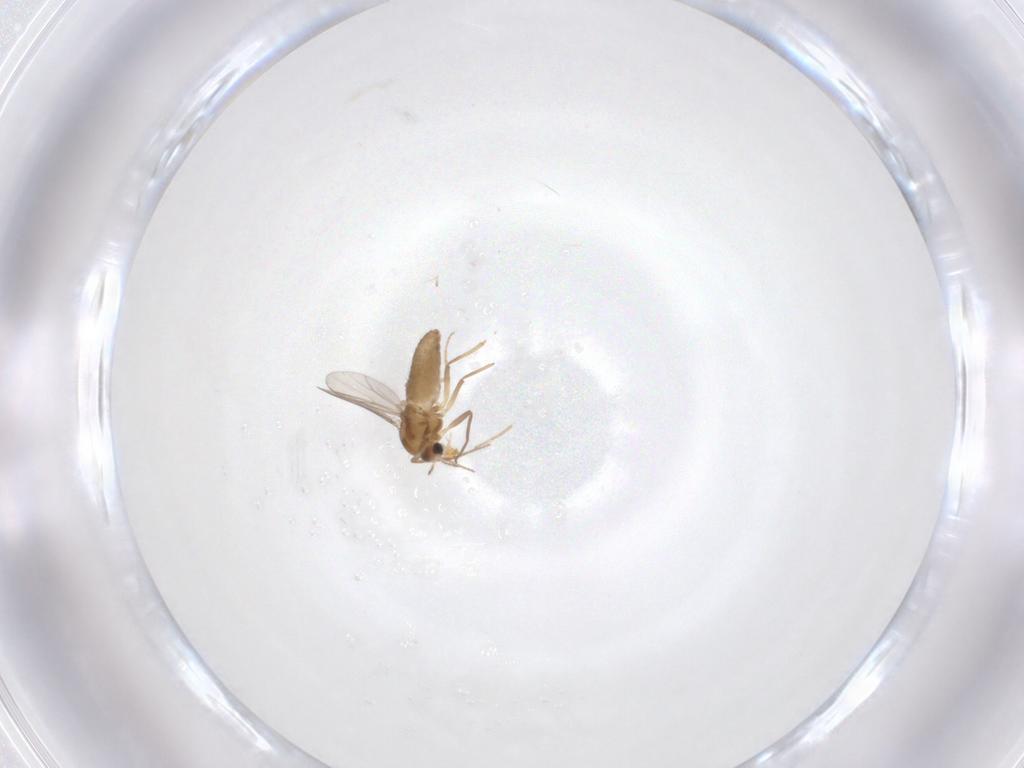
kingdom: Animalia
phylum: Arthropoda
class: Insecta
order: Diptera
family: Chironomidae
